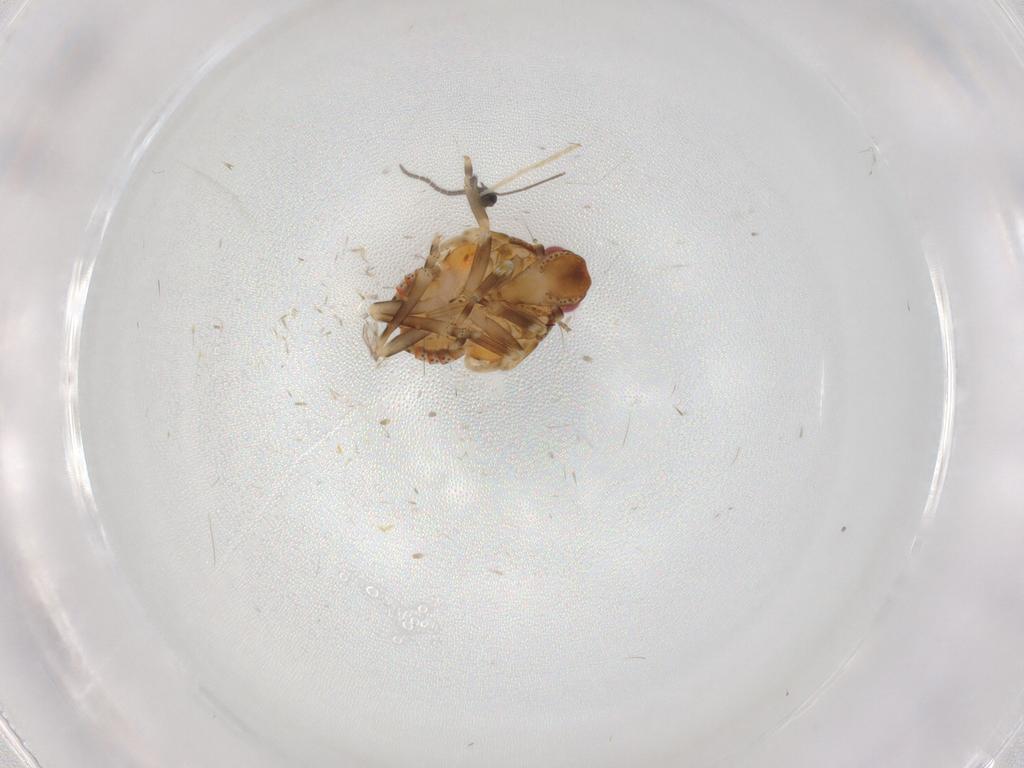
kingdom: Animalia
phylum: Arthropoda
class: Insecta
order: Hemiptera
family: Flatidae
